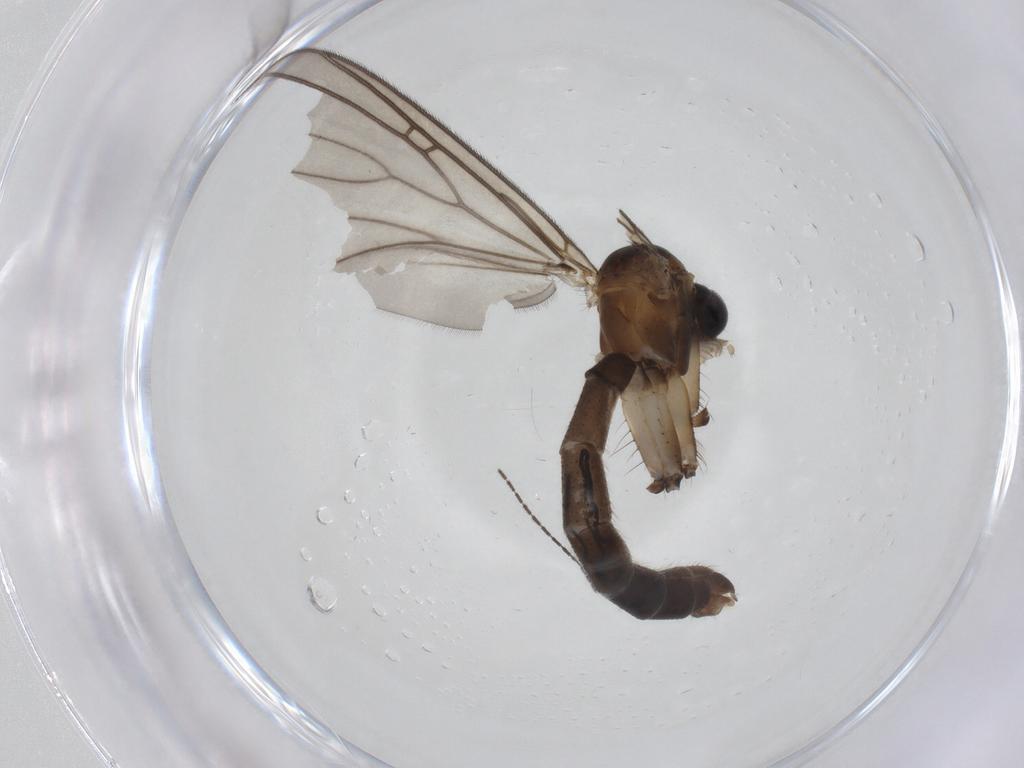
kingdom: Animalia
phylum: Arthropoda
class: Insecta
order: Diptera
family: Mycetophilidae
